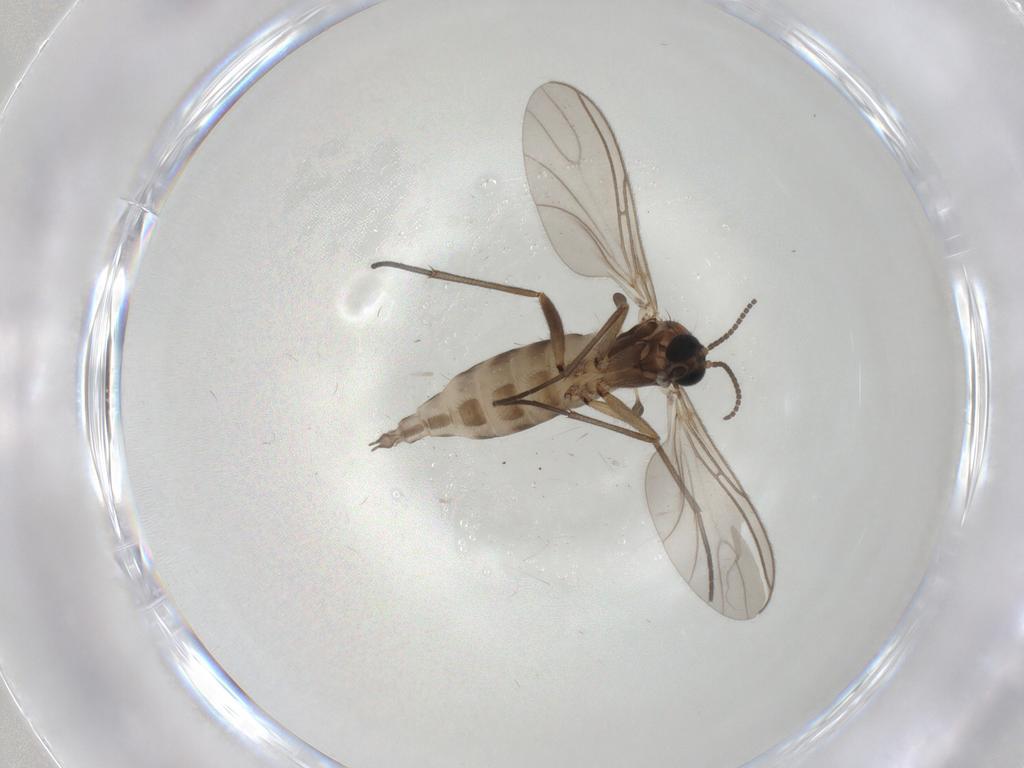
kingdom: Animalia
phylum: Arthropoda
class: Insecta
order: Diptera
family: Sciaridae
